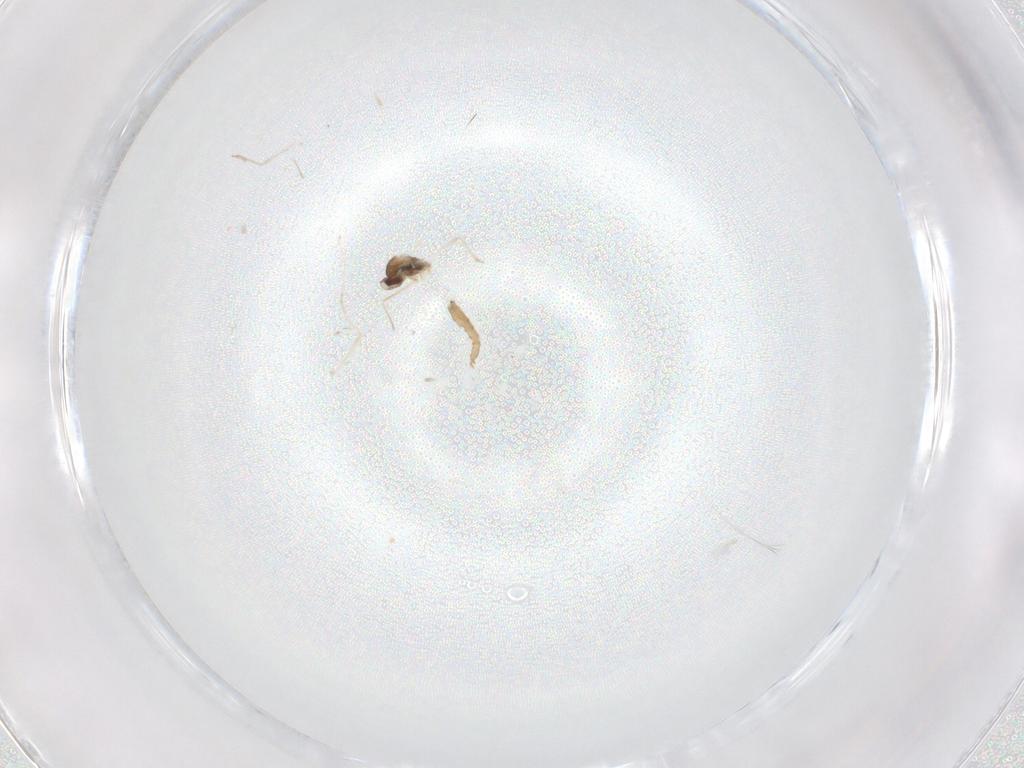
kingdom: Animalia
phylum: Arthropoda
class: Insecta
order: Diptera
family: Cecidomyiidae
